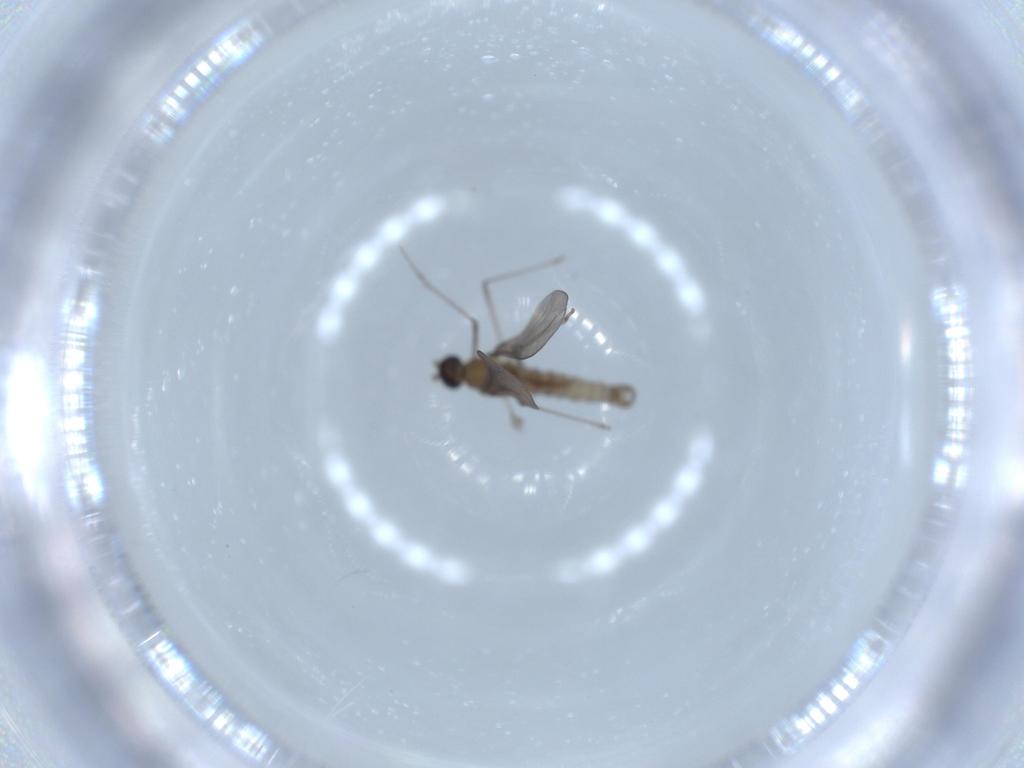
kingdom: Animalia
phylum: Arthropoda
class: Insecta
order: Diptera
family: Cecidomyiidae
